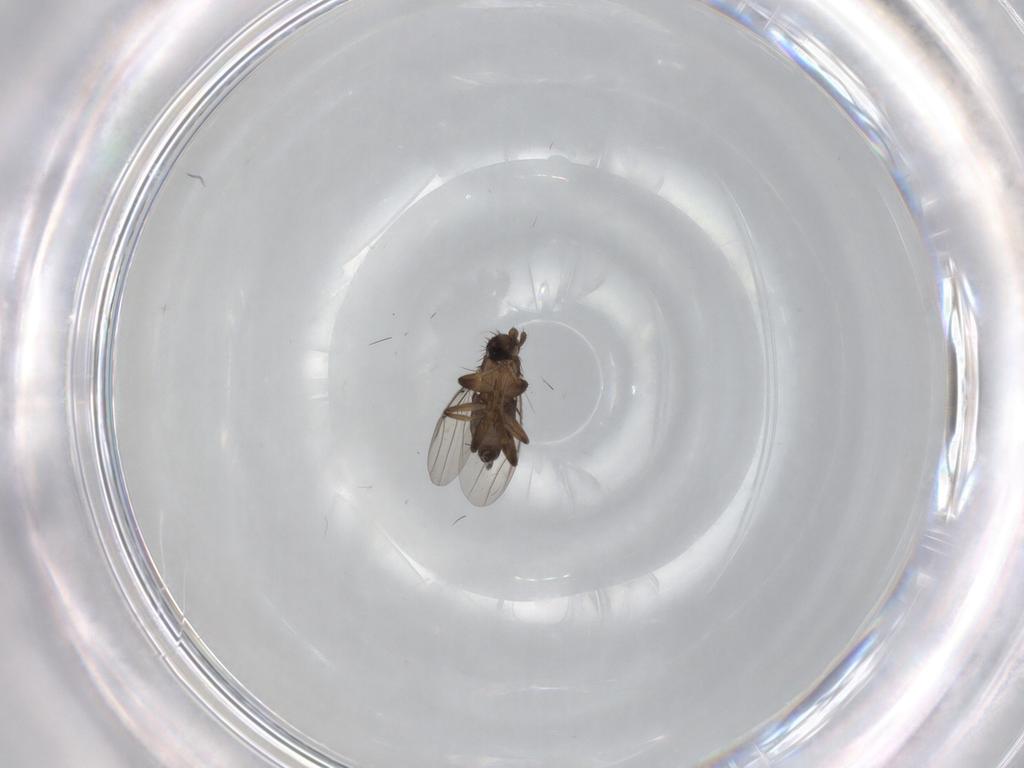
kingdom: Animalia
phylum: Arthropoda
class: Insecta
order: Diptera
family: Phoridae
